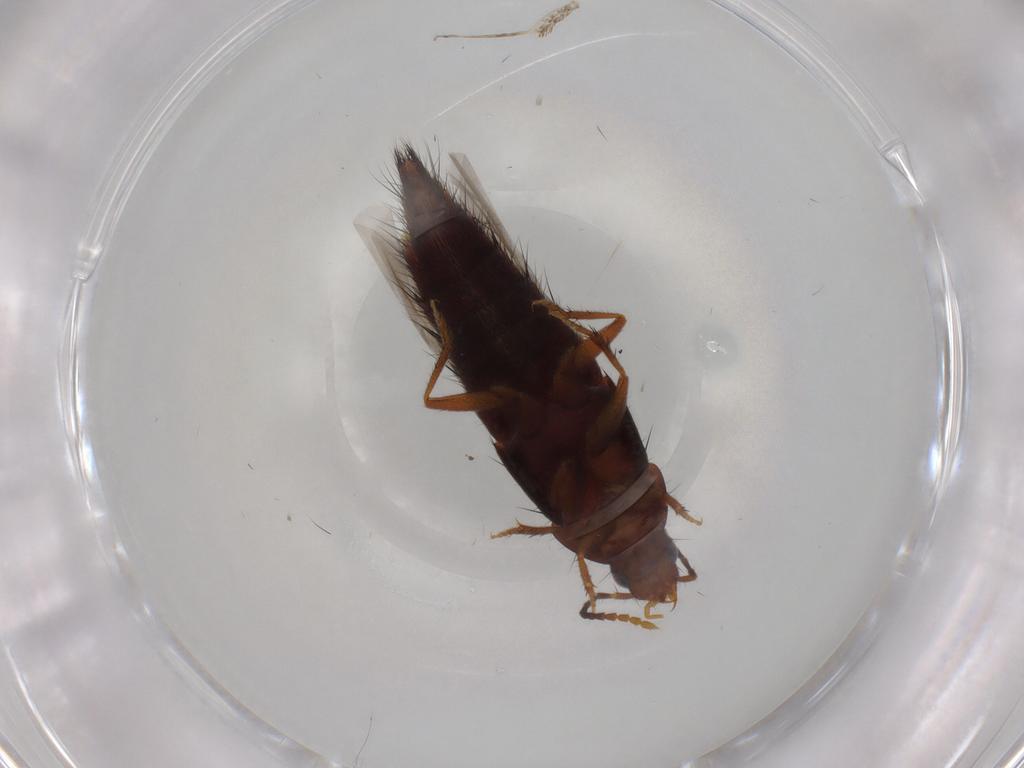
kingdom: Animalia
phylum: Arthropoda
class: Insecta
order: Coleoptera
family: Staphylinidae
